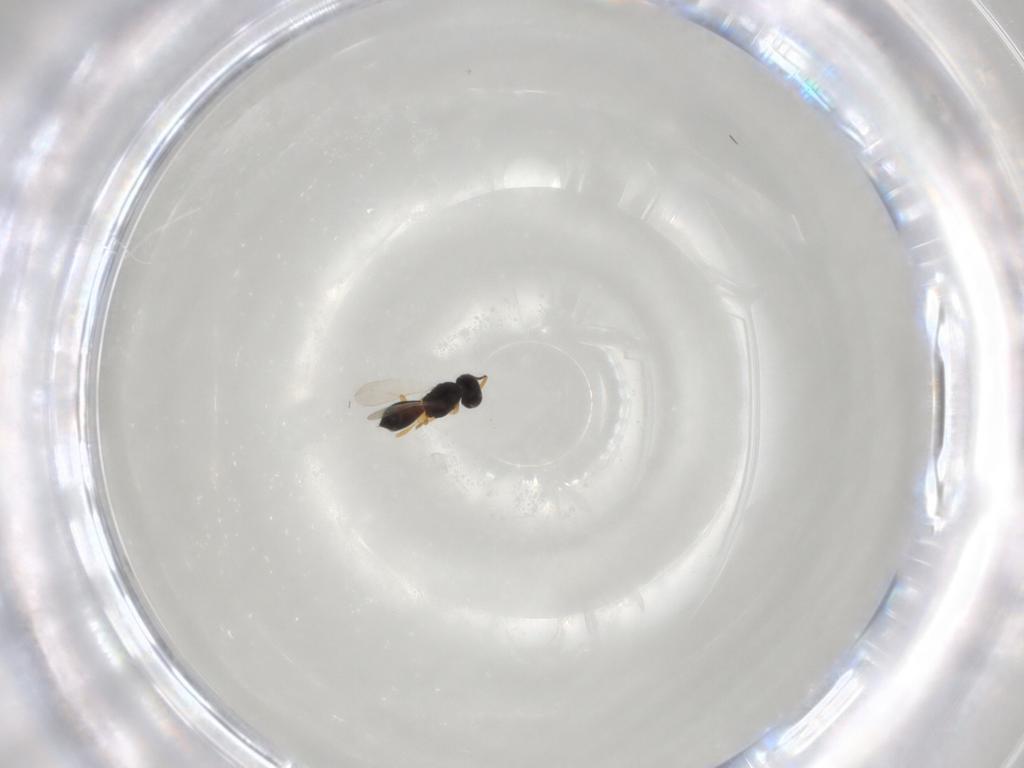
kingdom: Animalia
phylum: Arthropoda
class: Insecta
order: Hymenoptera
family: Scelionidae
